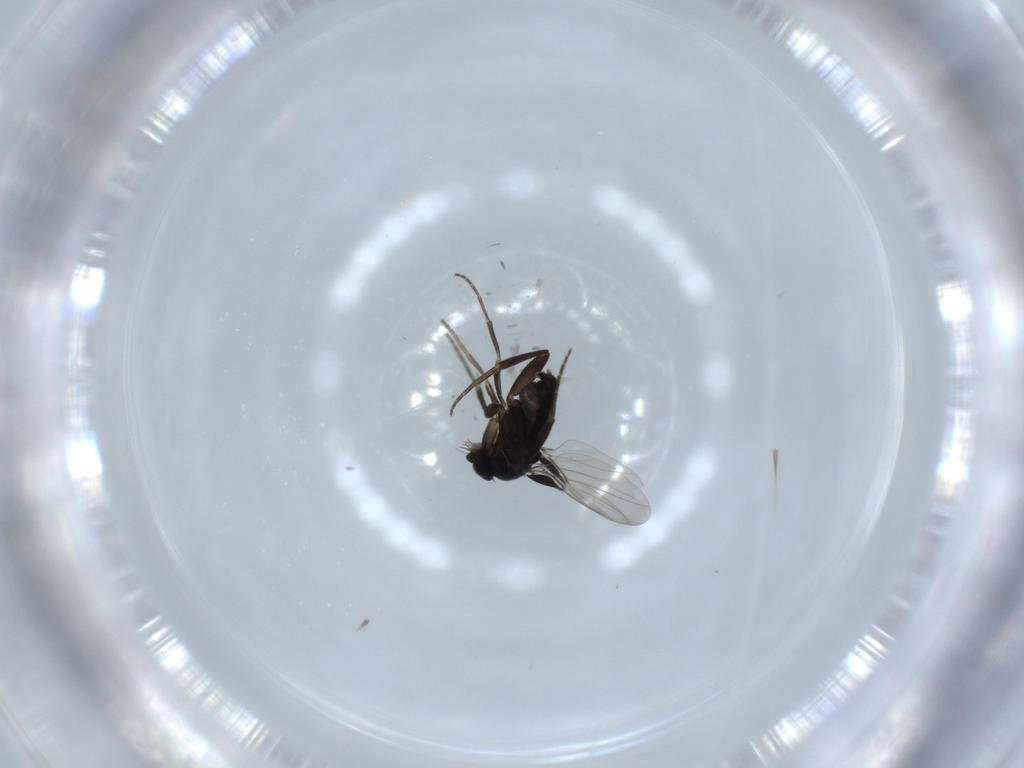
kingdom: Animalia
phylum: Arthropoda
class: Insecta
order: Diptera
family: Phoridae
